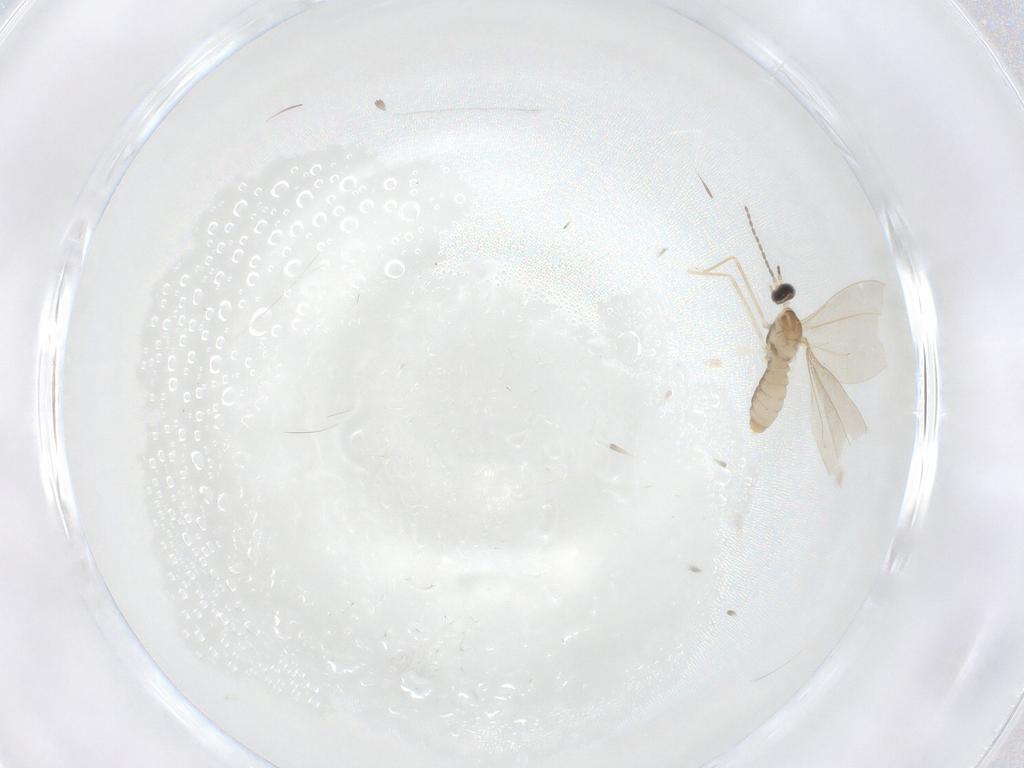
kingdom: Animalia
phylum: Arthropoda
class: Insecta
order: Diptera
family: Cecidomyiidae
